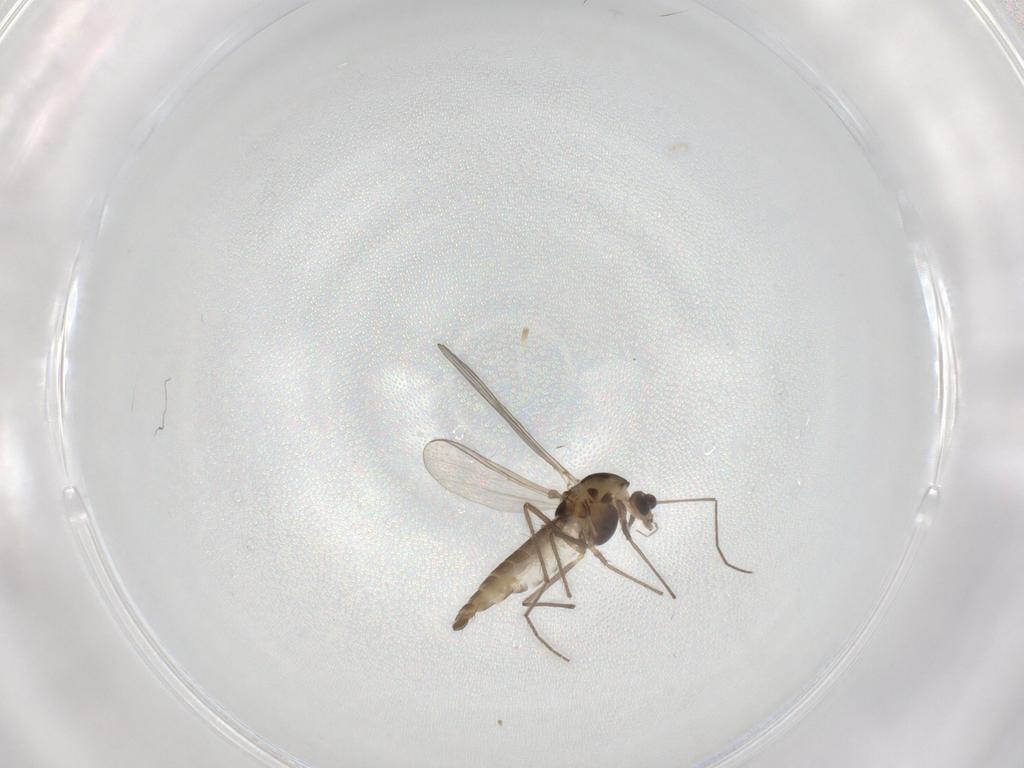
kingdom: Animalia
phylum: Arthropoda
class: Insecta
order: Diptera
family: Chironomidae
